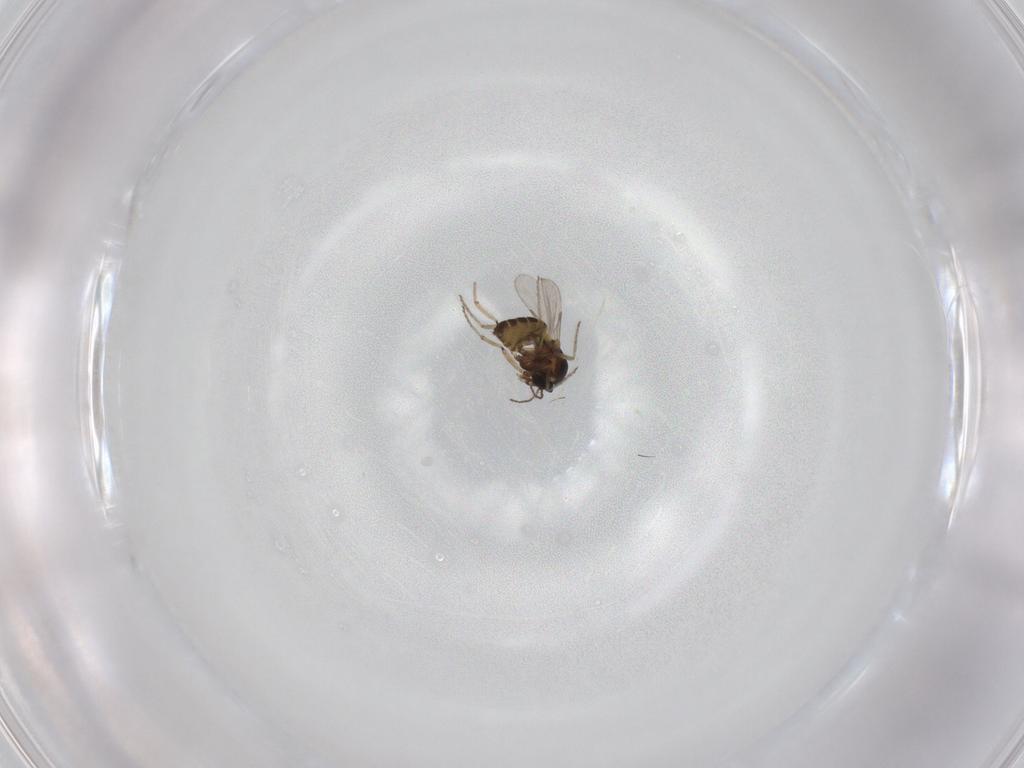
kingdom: Animalia
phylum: Arthropoda
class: Insecta
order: Diptera
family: Ceratopogonidae
